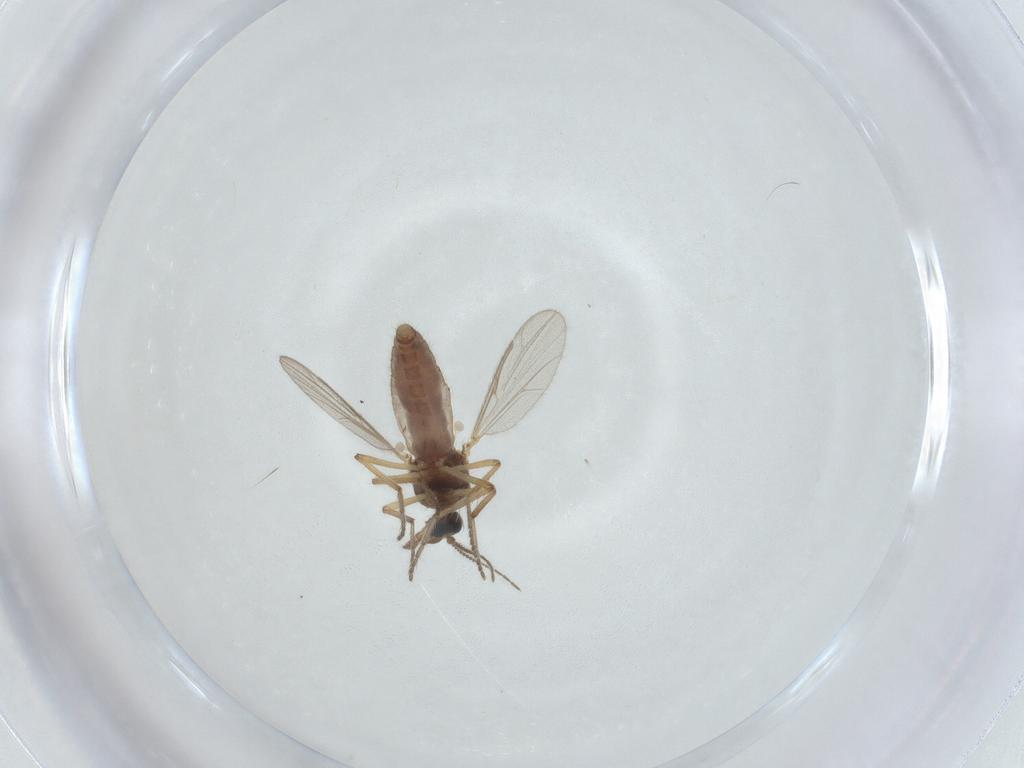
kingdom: Animalia
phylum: Arthropoda
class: Insecta
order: Diptera
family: Ceratopogonidae
